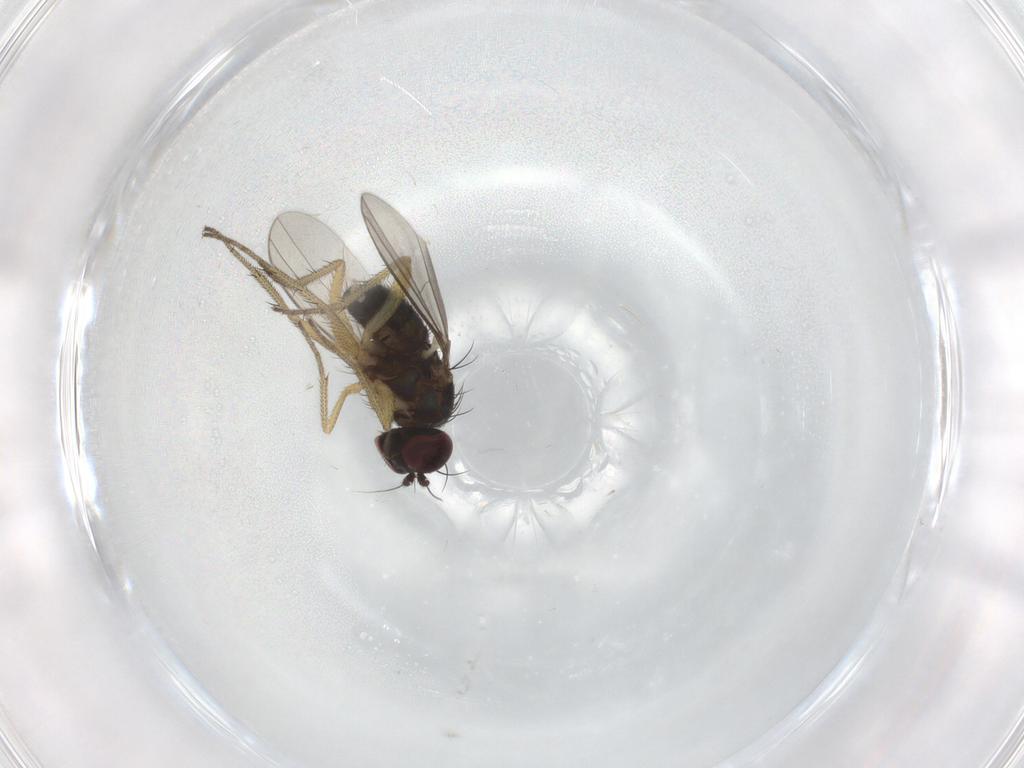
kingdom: Animalia
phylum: Arthropoda
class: Insecta
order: Diptera
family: Dolichopodidae
